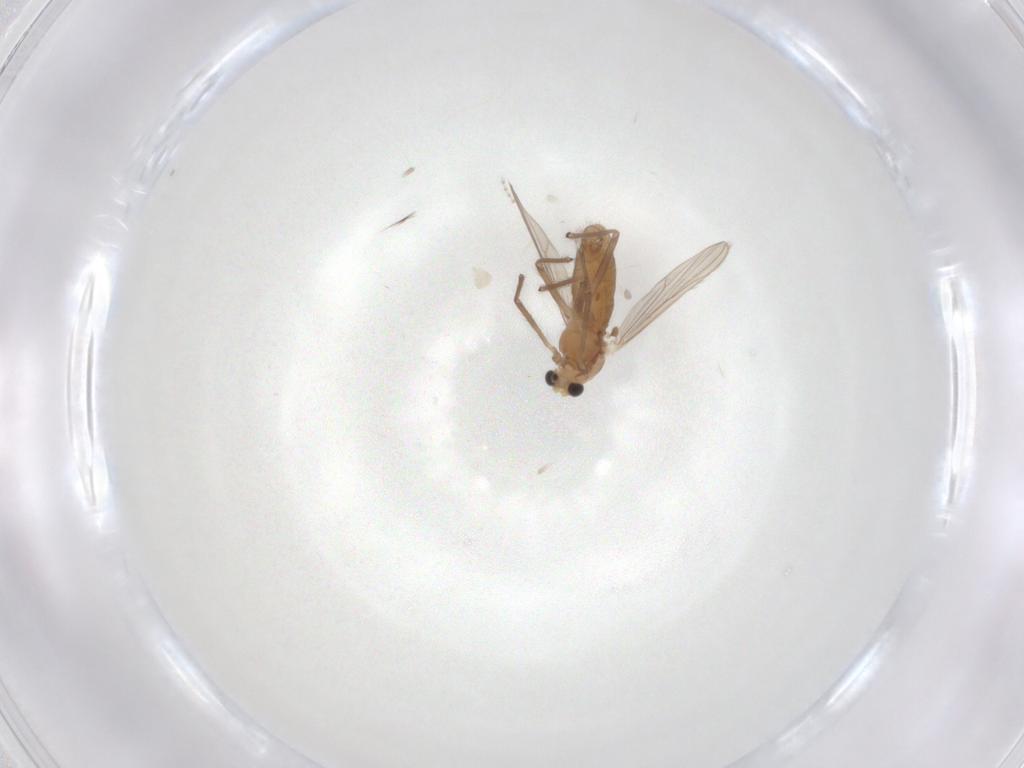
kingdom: Animalia
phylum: Arthropoda
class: Insecta
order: Diptera
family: Chironomidae
